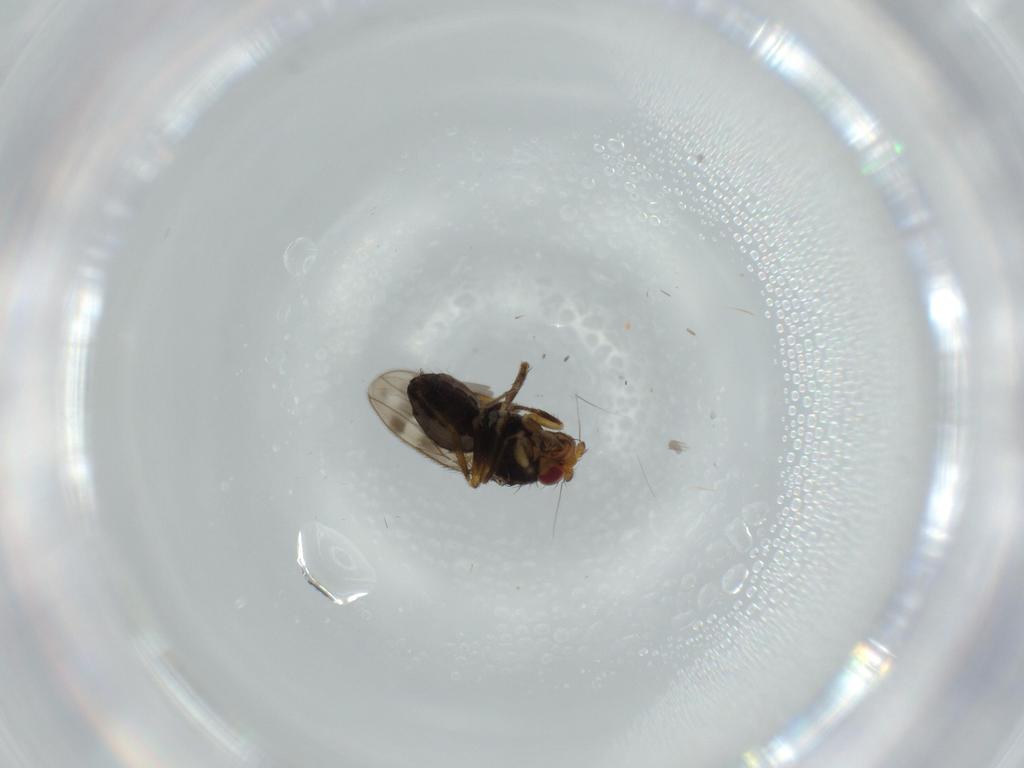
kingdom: Animalia
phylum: Arthropoda
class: Insecta
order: Diptera
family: Sphaeroceridae
